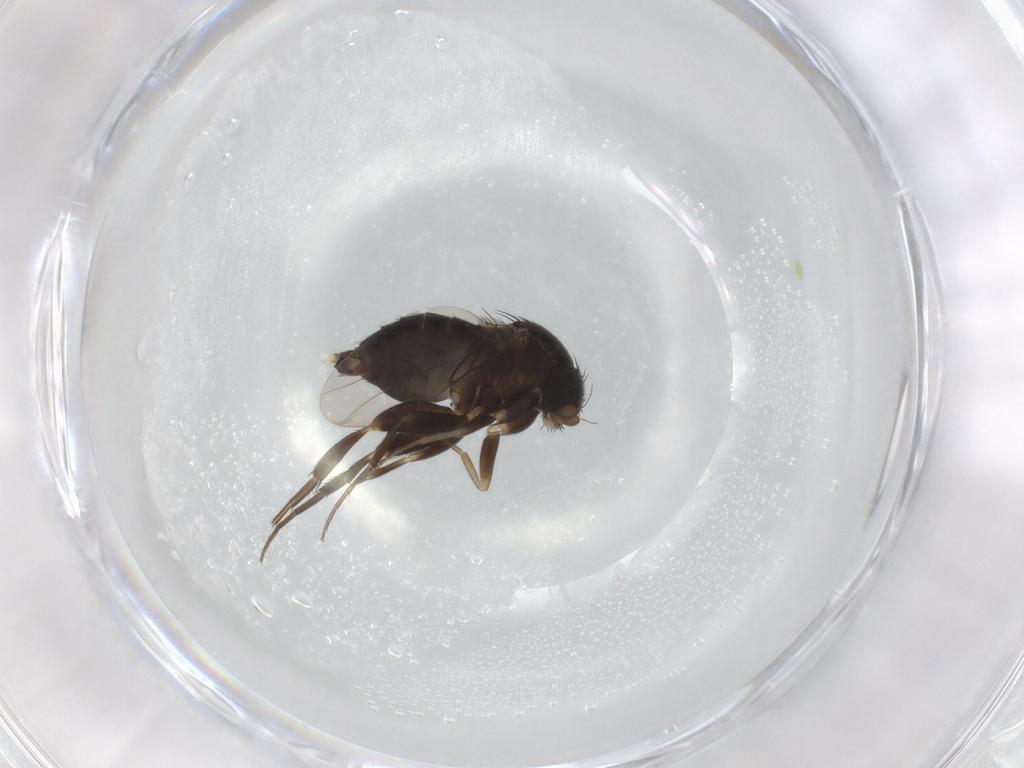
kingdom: Animalia
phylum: Arthropoda
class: Insecta
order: Diptera
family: Phoridae
